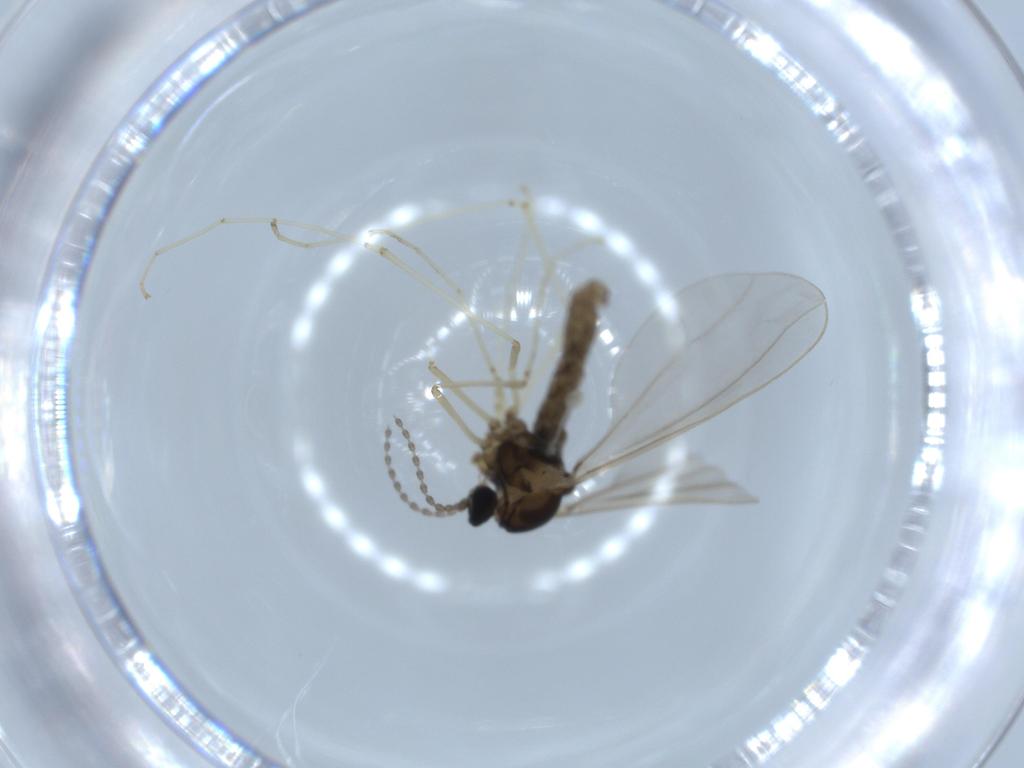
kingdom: Animalia
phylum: Arthropoda
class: Insecta
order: Diptera
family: Cecidomyiidae
